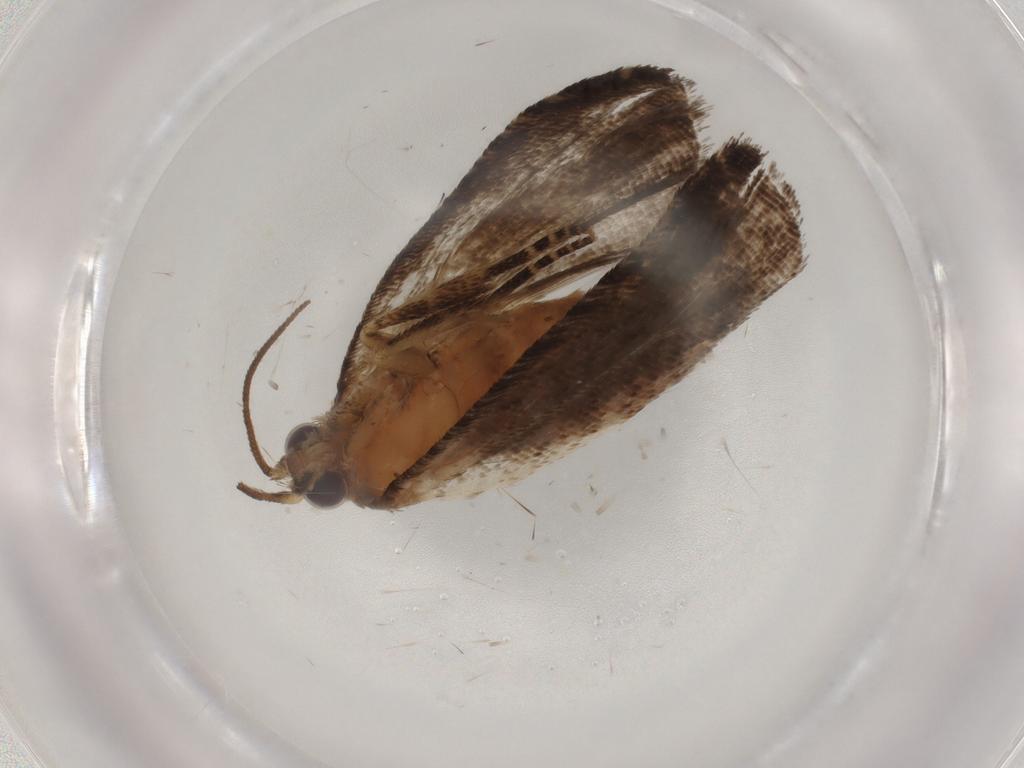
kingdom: Animalia
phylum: Arthropoda
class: Insecta
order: Lepidoptera
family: Tortricidae
